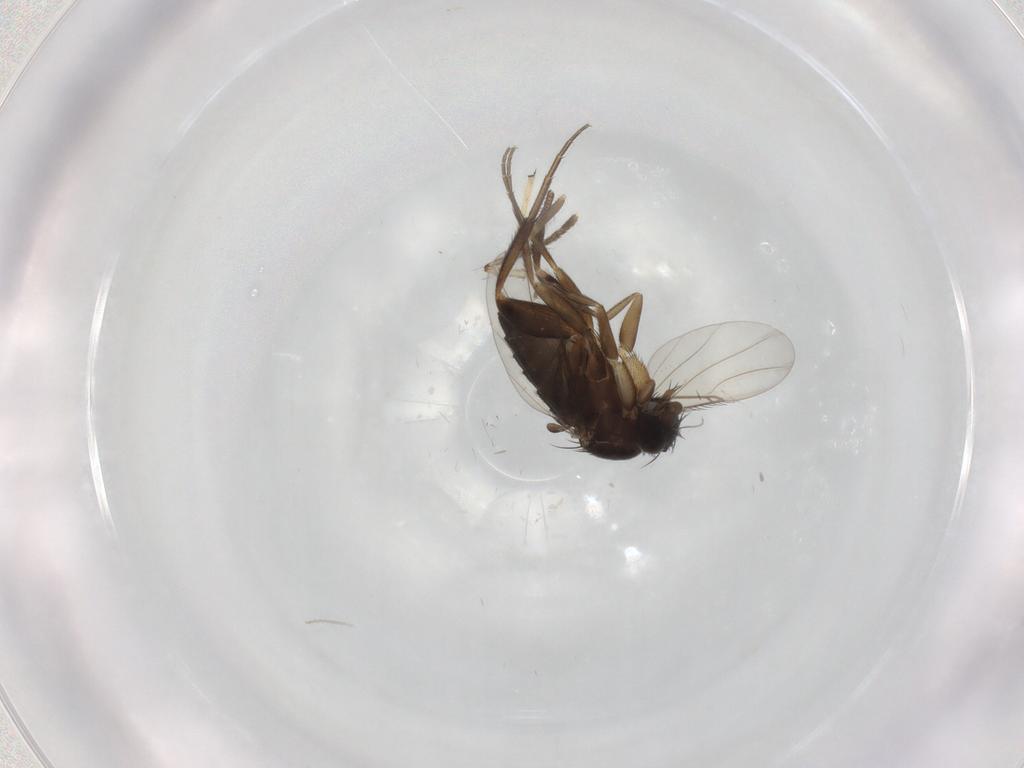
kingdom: Animalia
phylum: Arthropoda
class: Insecta
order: Diptera
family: Phoridae
